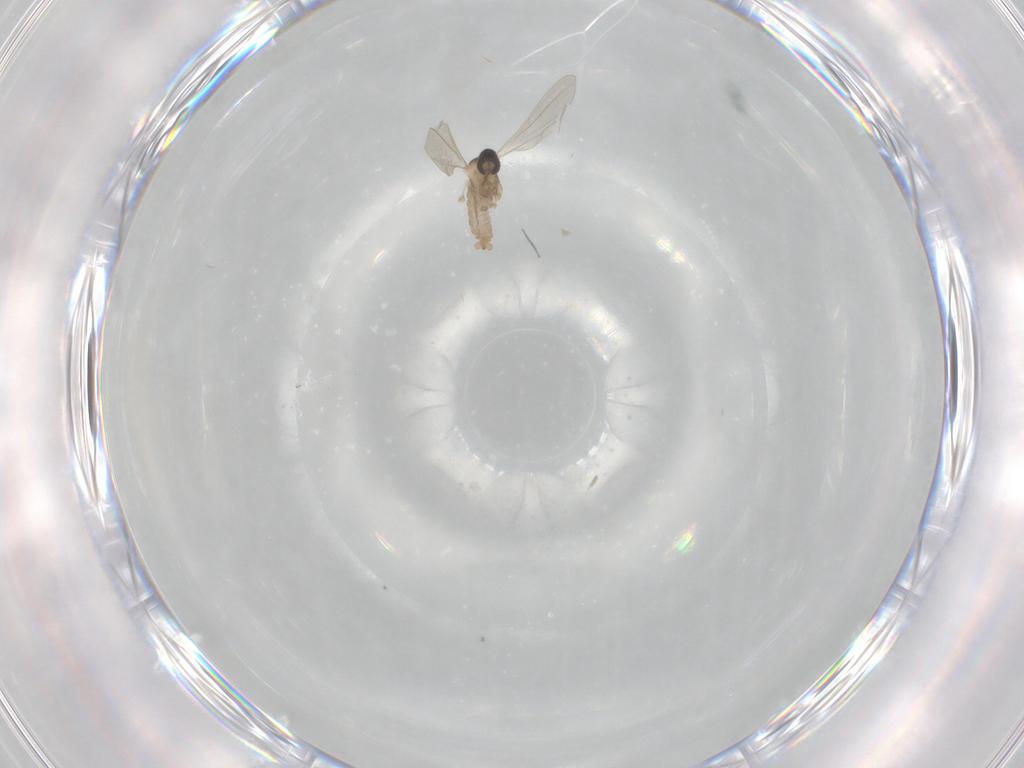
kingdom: Animalia
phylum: Arthropoda
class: Insecta
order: Diptera
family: Cecidomyiidae
